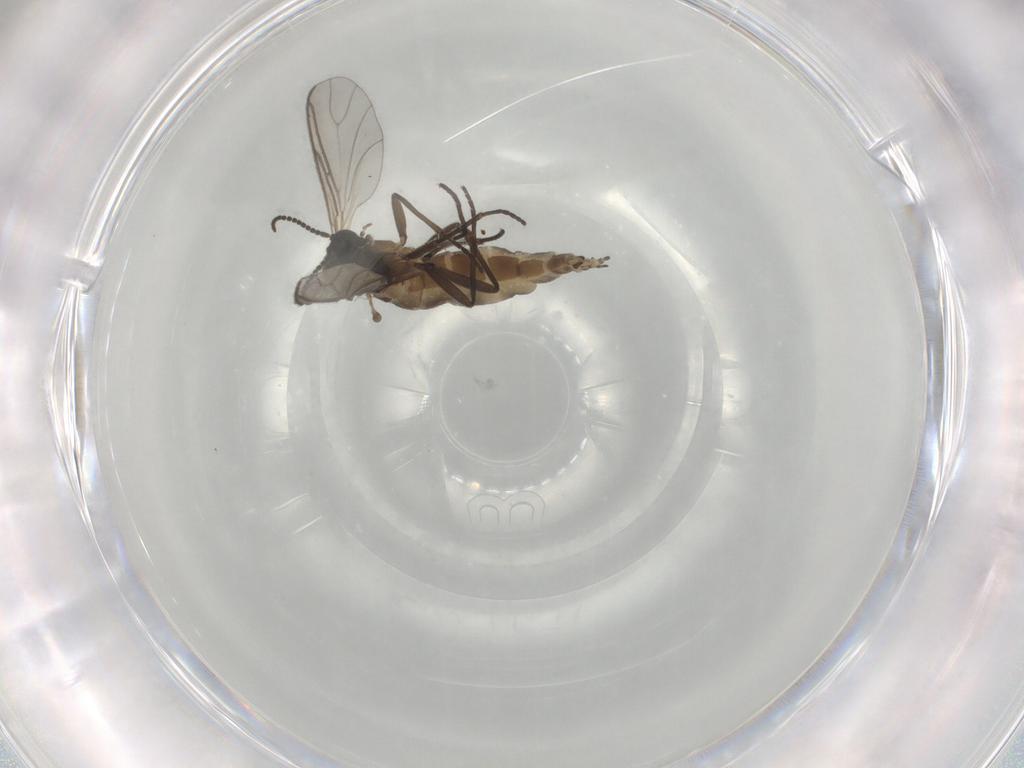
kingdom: Animalia
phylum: Arthropoda
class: Insecta
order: Diptera
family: Sciaridae
